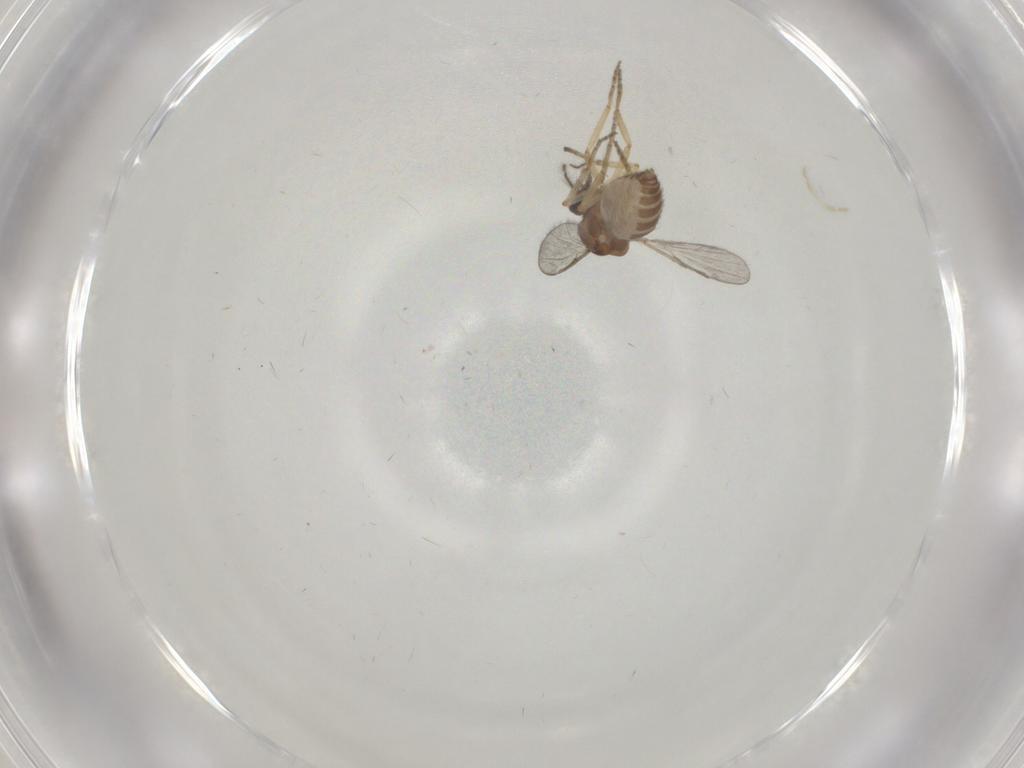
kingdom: Animalia
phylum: Arthropoda
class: Insecta
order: Diptera
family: Ceratopogonidae
